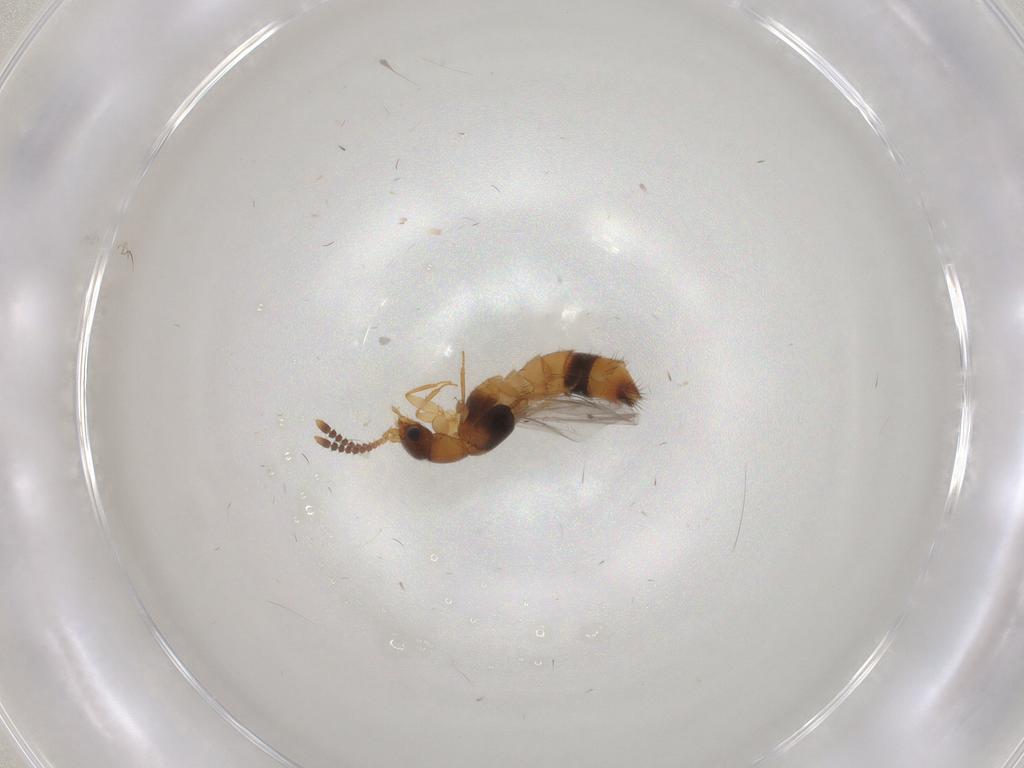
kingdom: Animalia
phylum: Arthropoda
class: Insecta
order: Coleoptera
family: Staphylinidae
